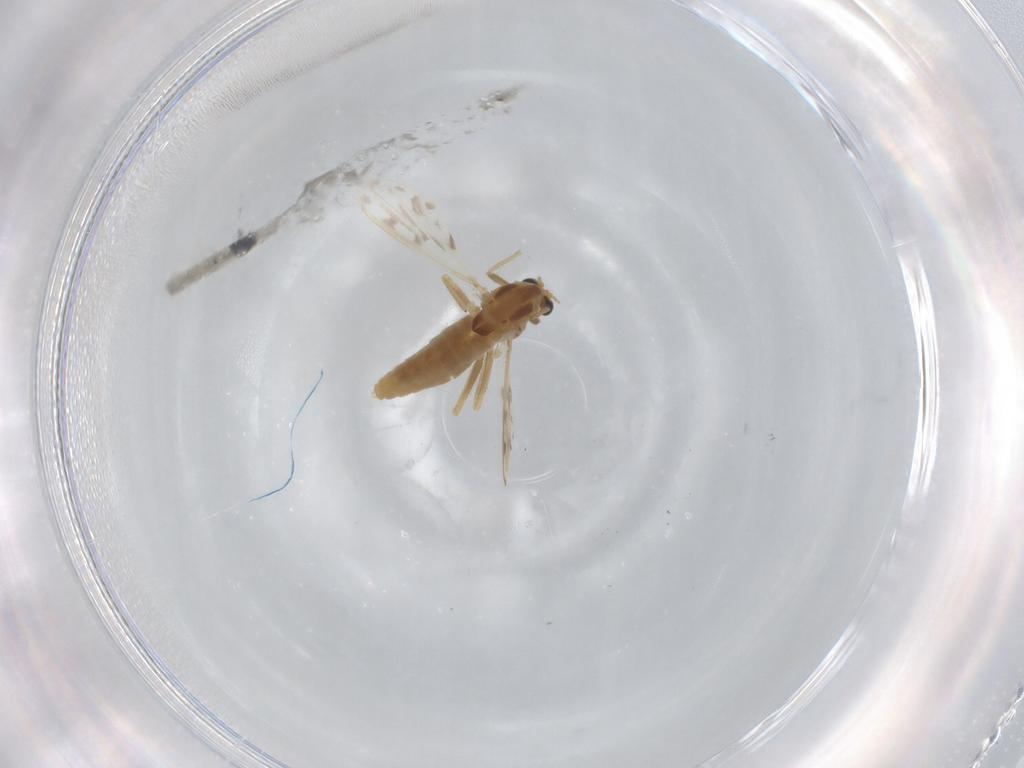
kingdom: Animalia
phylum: Arthropoda
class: Insecta
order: Diptera
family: Chironomidae
